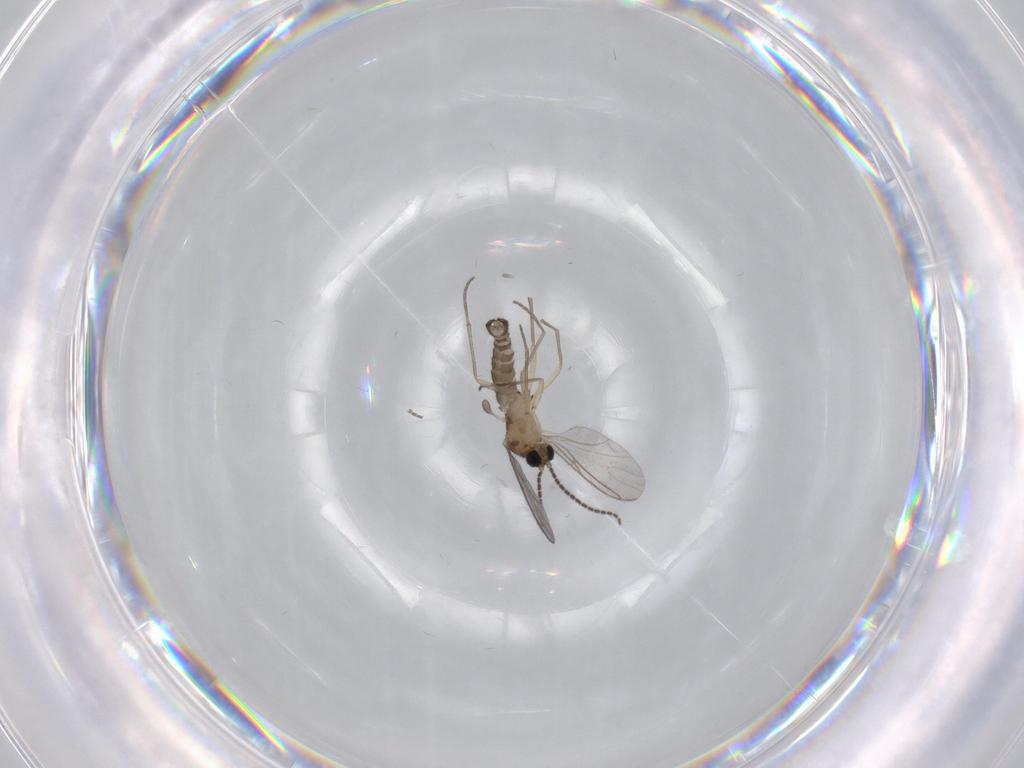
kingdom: Animalia
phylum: Arthropoda
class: Insecta
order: Diptera
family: Sciaridae
